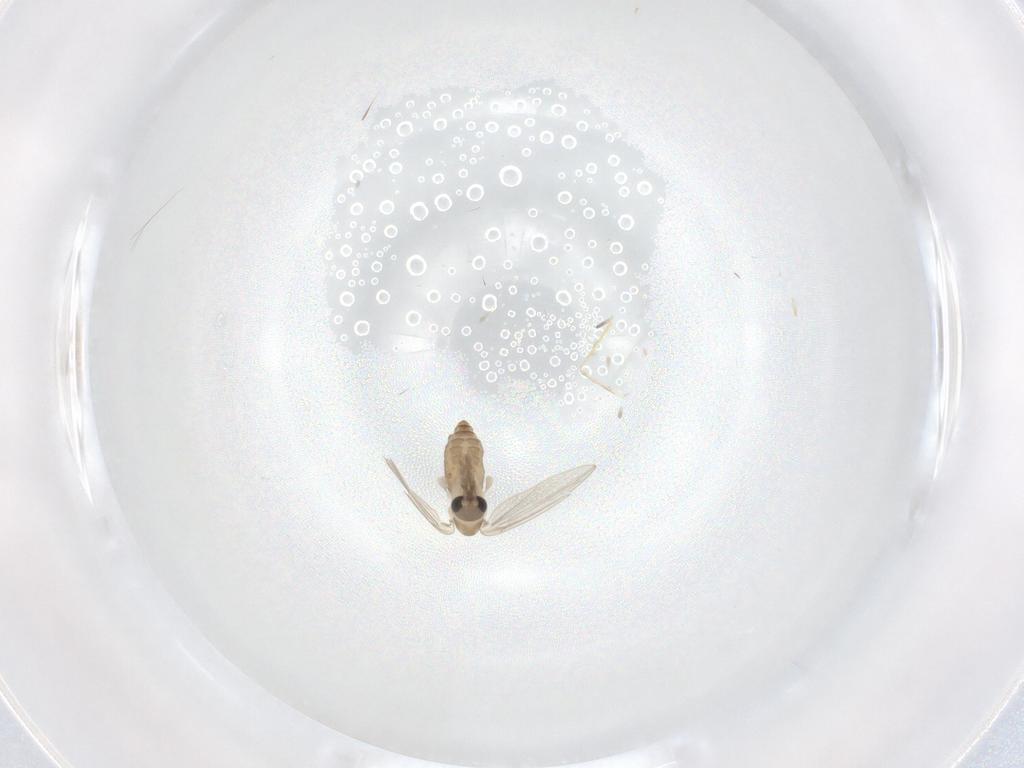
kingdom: Animalia
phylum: Arthropoda
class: Insecta
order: Diptera
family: Cecidomyiidae
